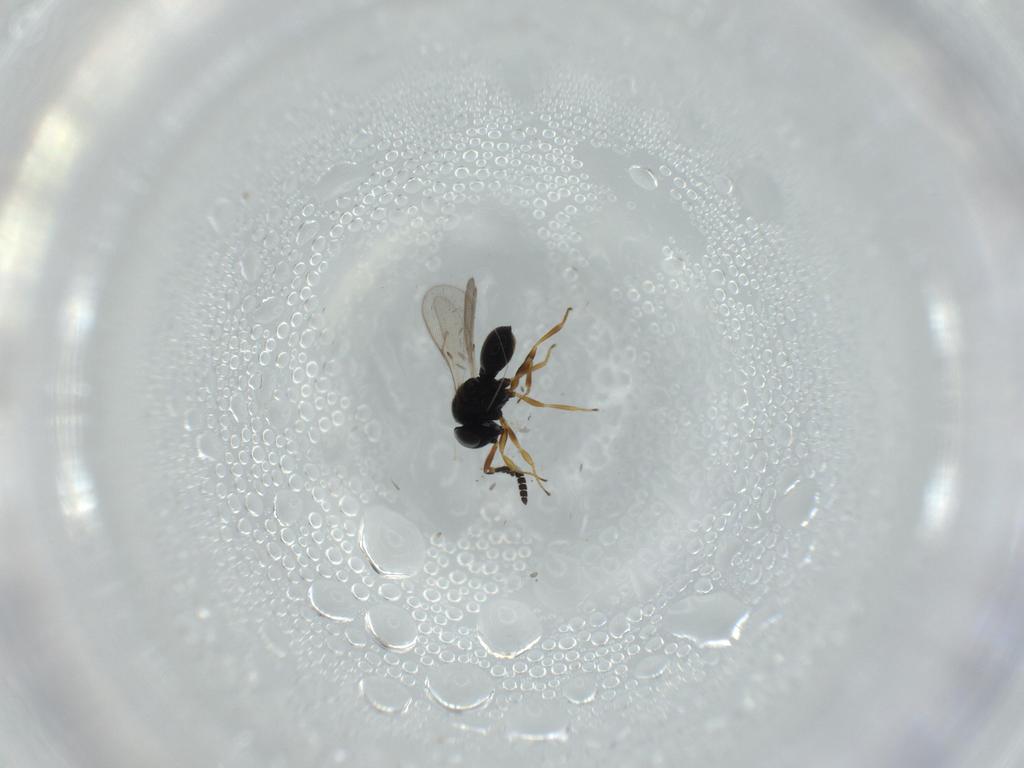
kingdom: Animalia
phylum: Arthropoda
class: Insecta
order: Hymenoptera
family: Scelionidae
